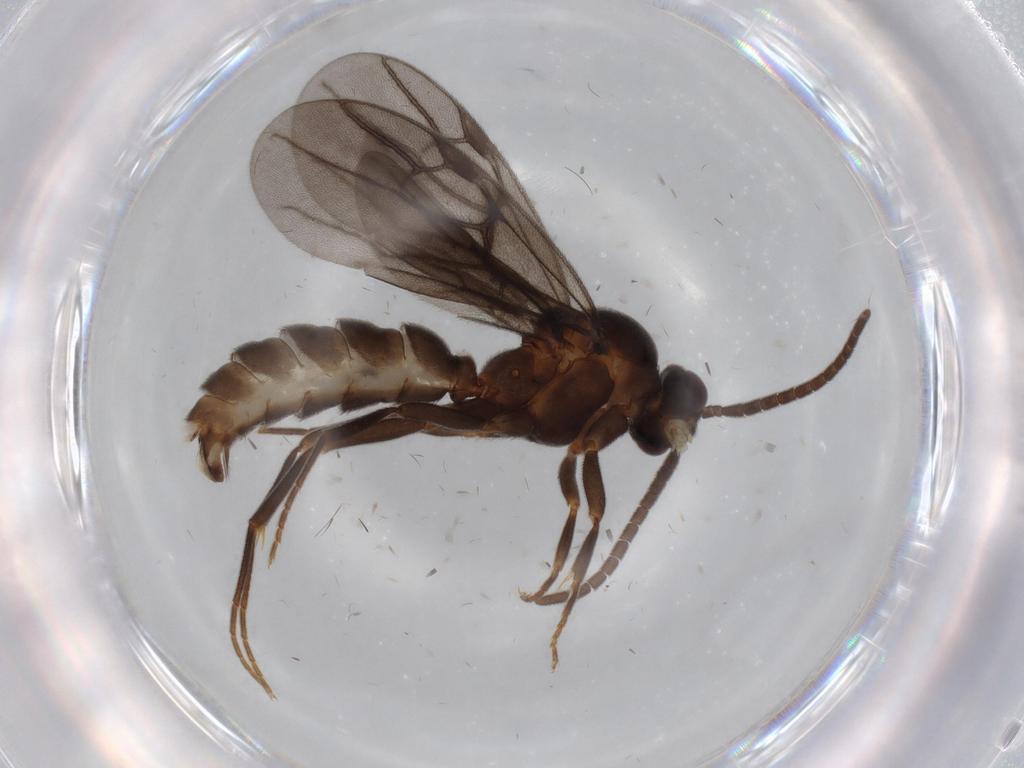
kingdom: Animalia
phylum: Arthropoda
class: Insecta
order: Hymenoptera
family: Formicidae
